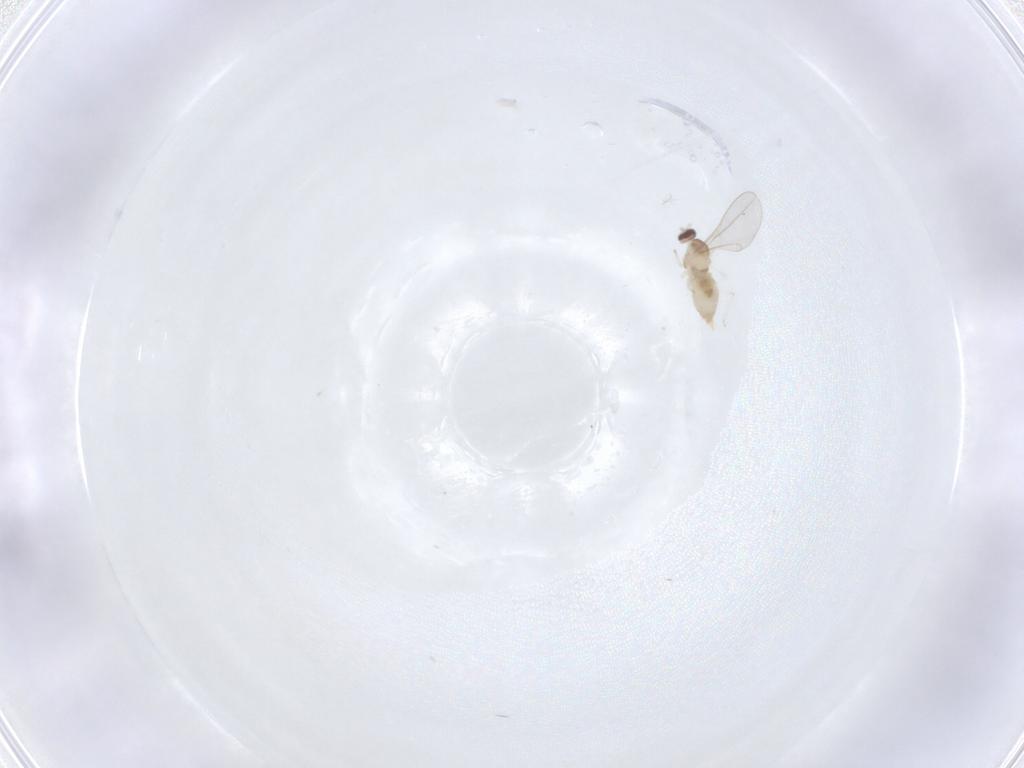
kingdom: Animalia
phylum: Arthropoda
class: Insecta
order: Diptera
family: Cecidomyiidae
